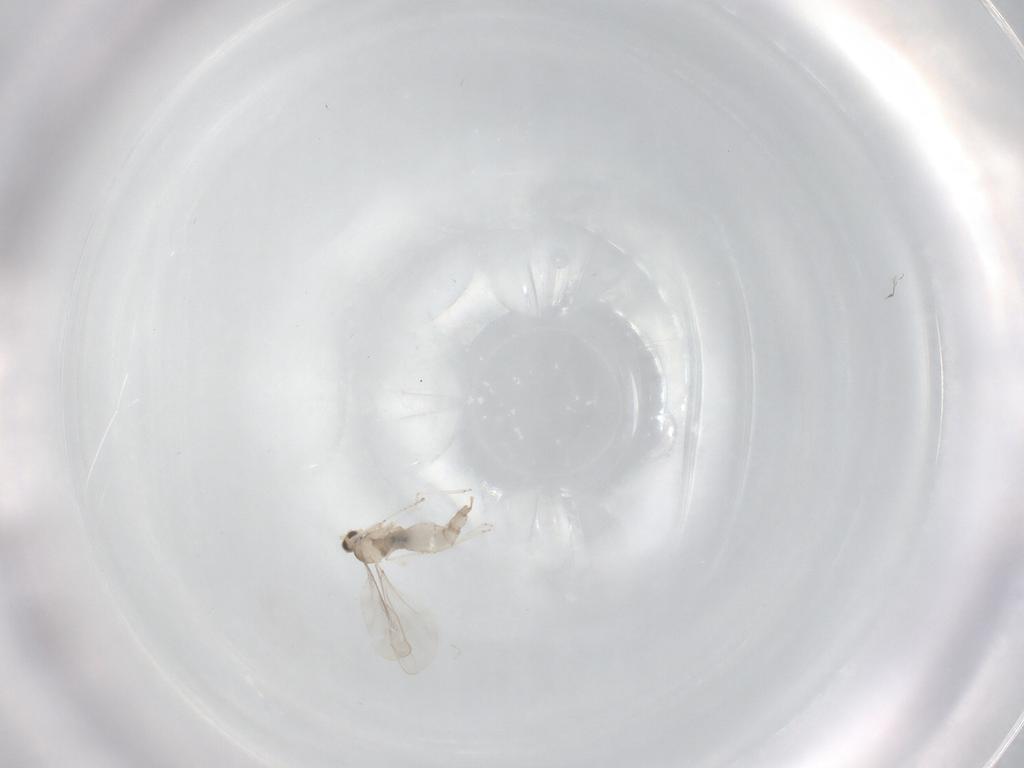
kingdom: Animalia
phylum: Arthropoda
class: Insecta
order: Diptera
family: Cecidomyiidae
